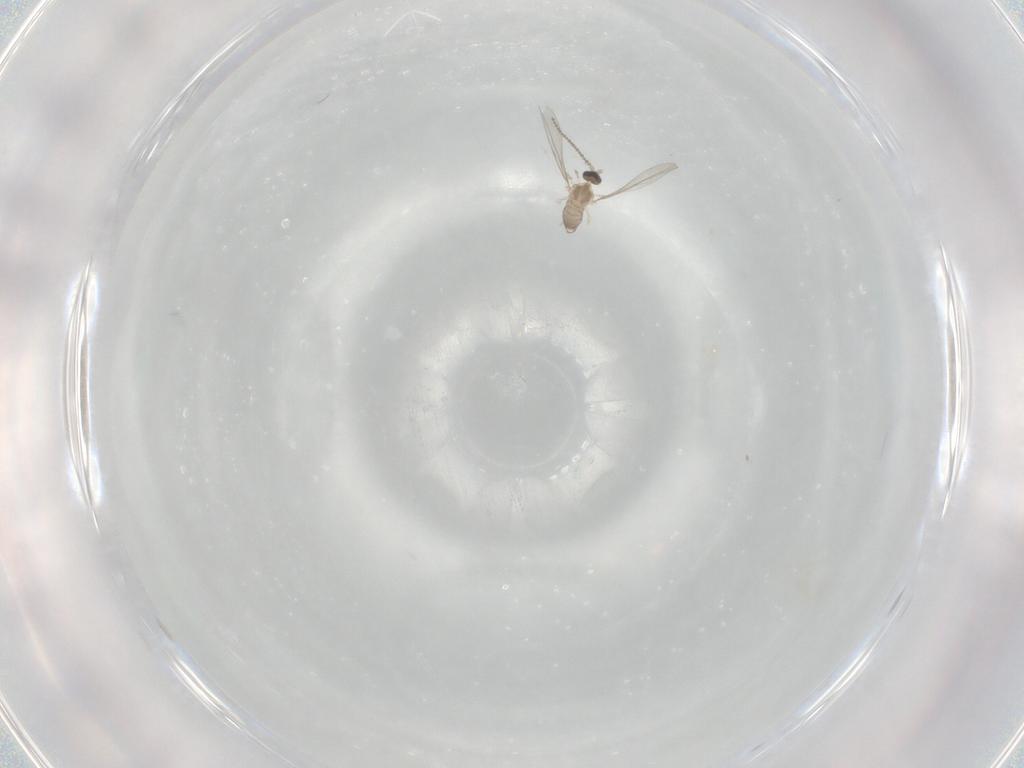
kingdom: Animalia
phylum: Arthropoda
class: Insecta
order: Diptera
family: Cecidomyiidae
